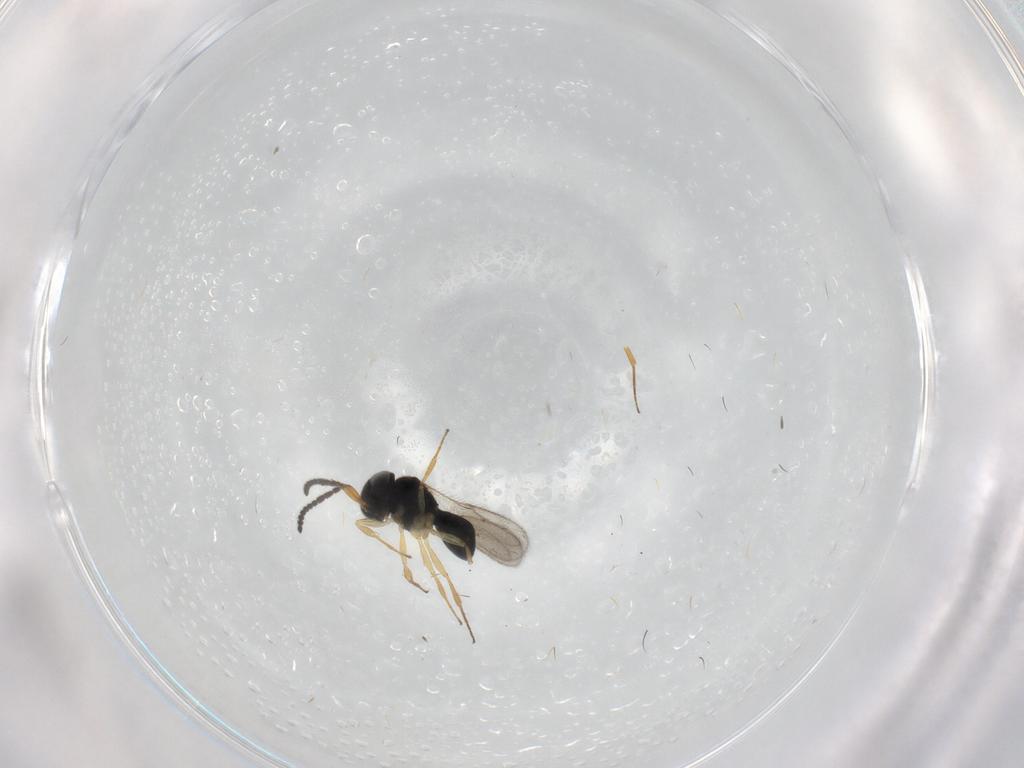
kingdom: Animalia
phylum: Arthropoda
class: Insecta
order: Hymenoptera
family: Scelionidae
